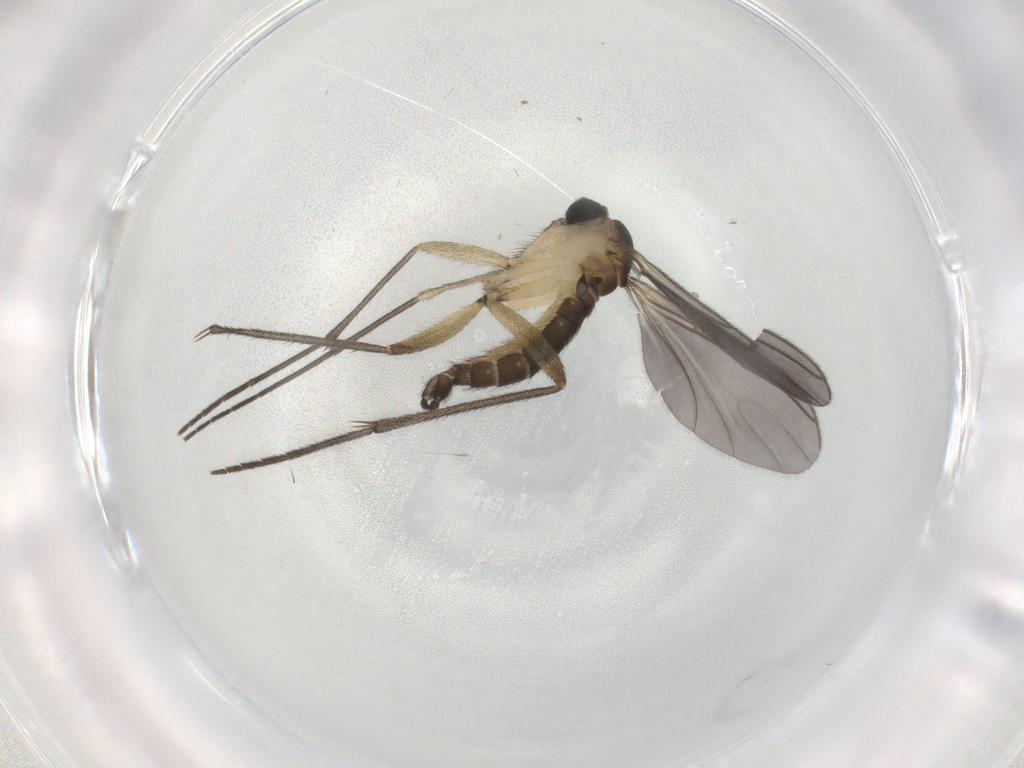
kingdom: Animalia
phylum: Arthropoda
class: Insecta
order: Diptera
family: Sciaridae
